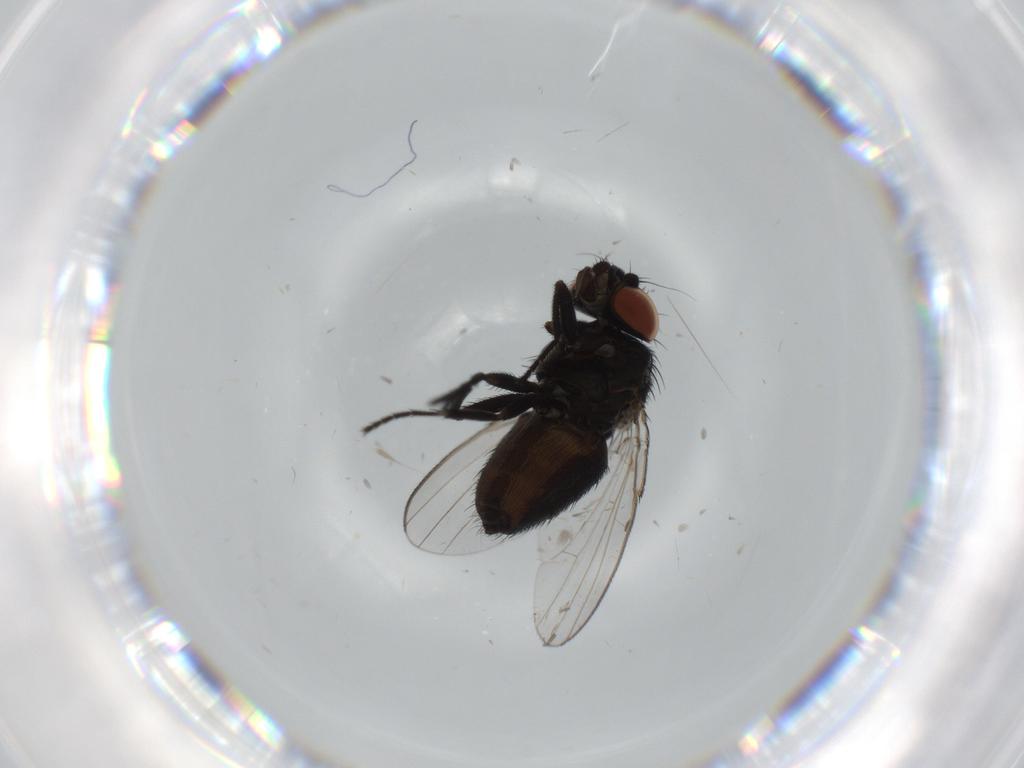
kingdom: Animalia
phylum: Arthropoda
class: Insecta
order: Diptera
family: Milichiidae
